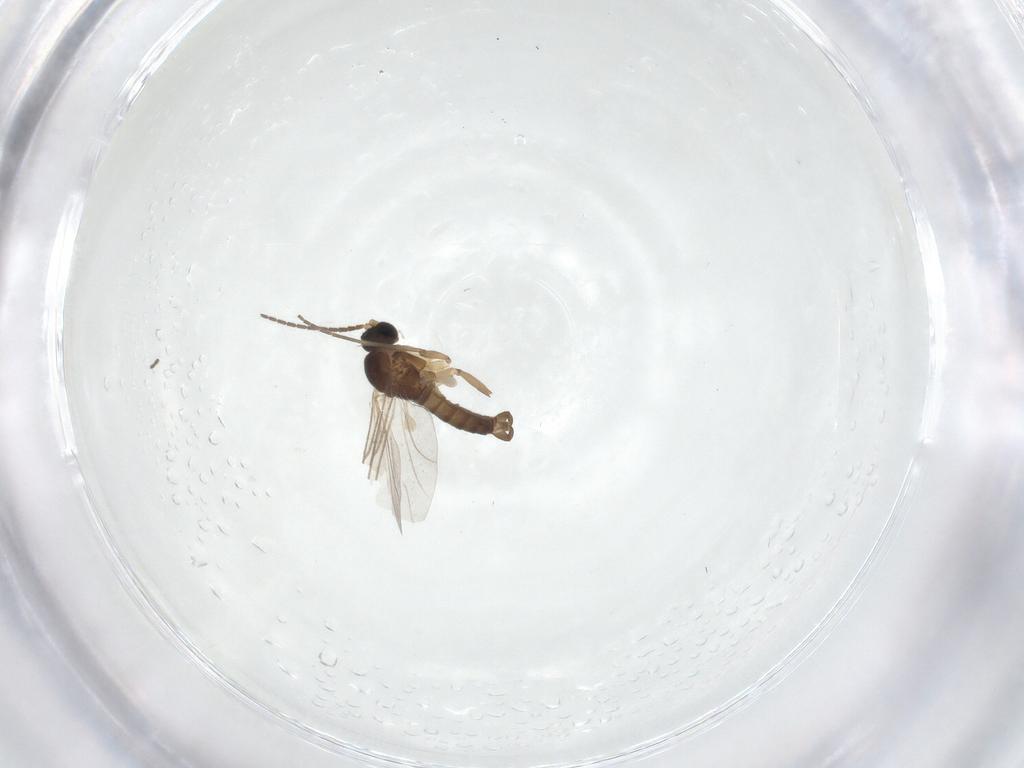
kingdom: Animalia
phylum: Arthropoda
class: Insecta
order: Diptera
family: Sciaridae
